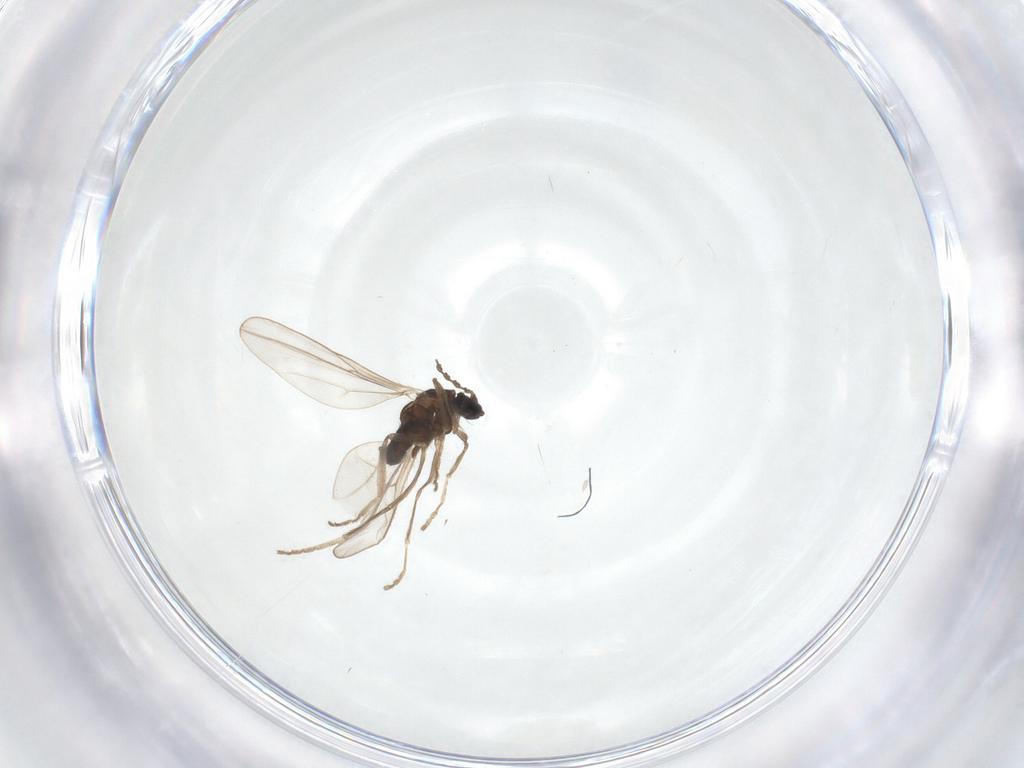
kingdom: Animalia
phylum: Arthropoda
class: Insecta
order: Diptera
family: Cecidomyiidae
